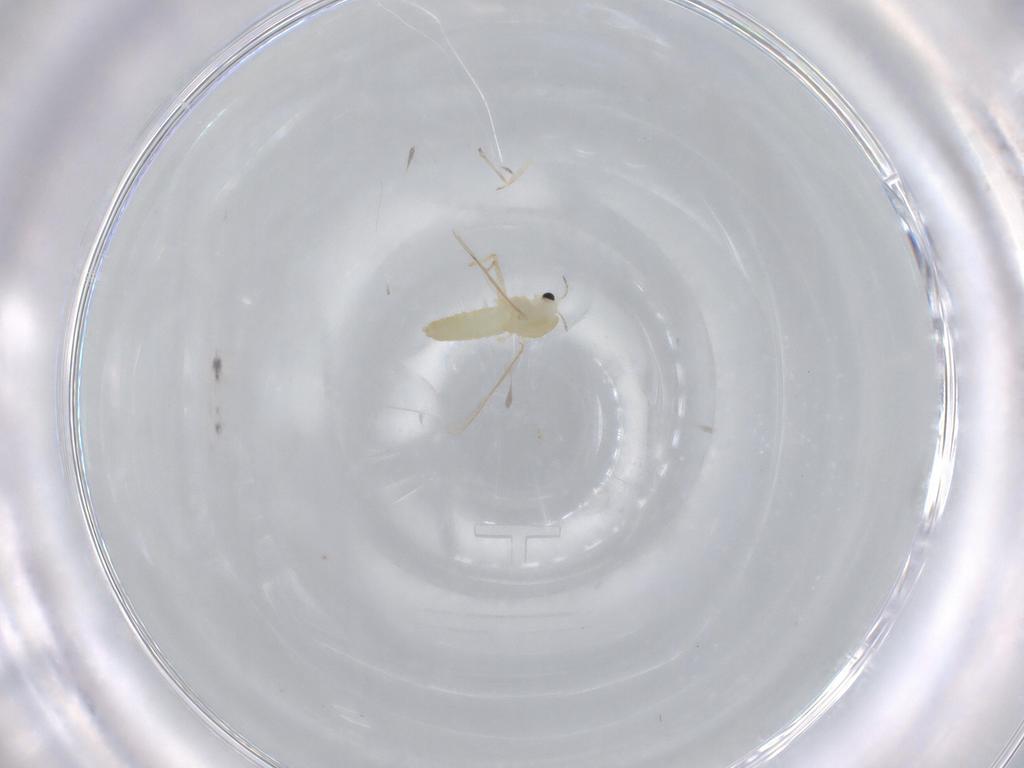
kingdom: Animalia
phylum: Arthropoda
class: Insecta
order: Diptera
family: Chironomidae
